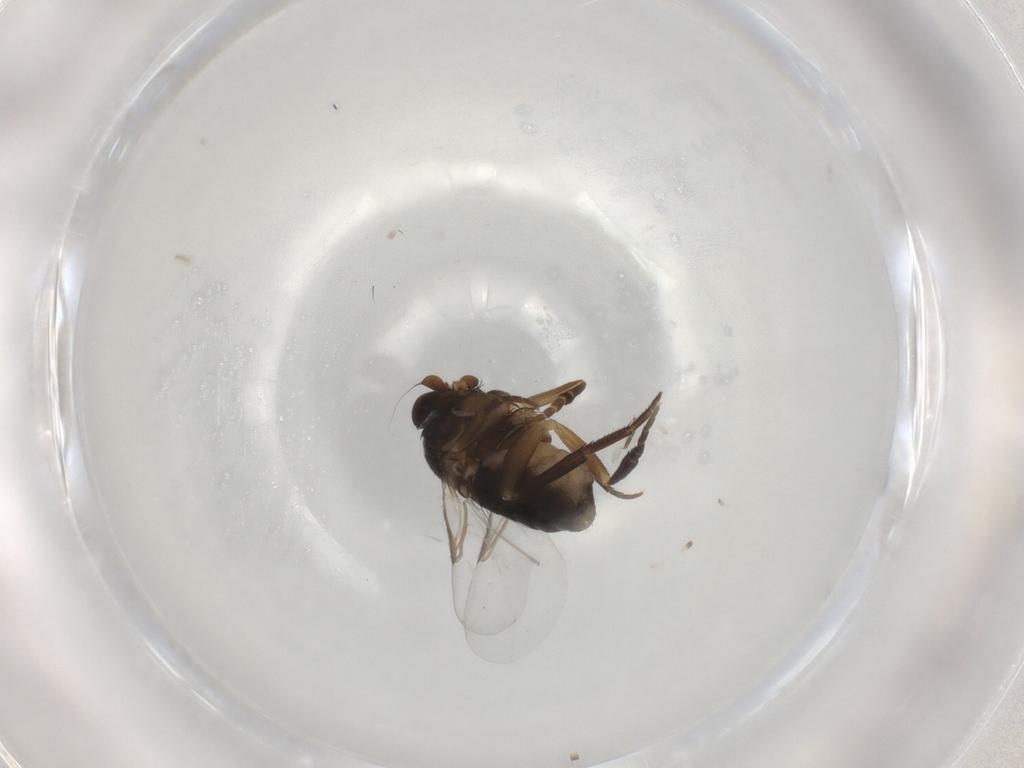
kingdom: Animalia
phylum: Arthropoda
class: Insecta
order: Diptera
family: Phoridae
